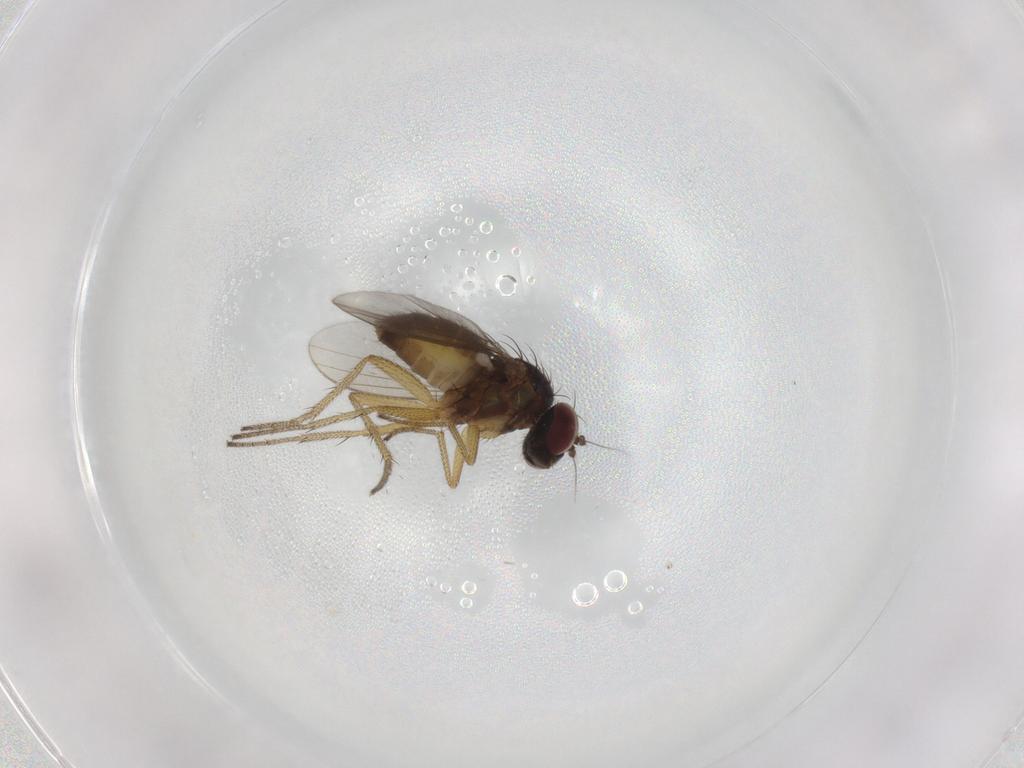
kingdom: Animalia
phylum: Arthropoda
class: Insecta
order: Diptera
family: Dolichopodidae
